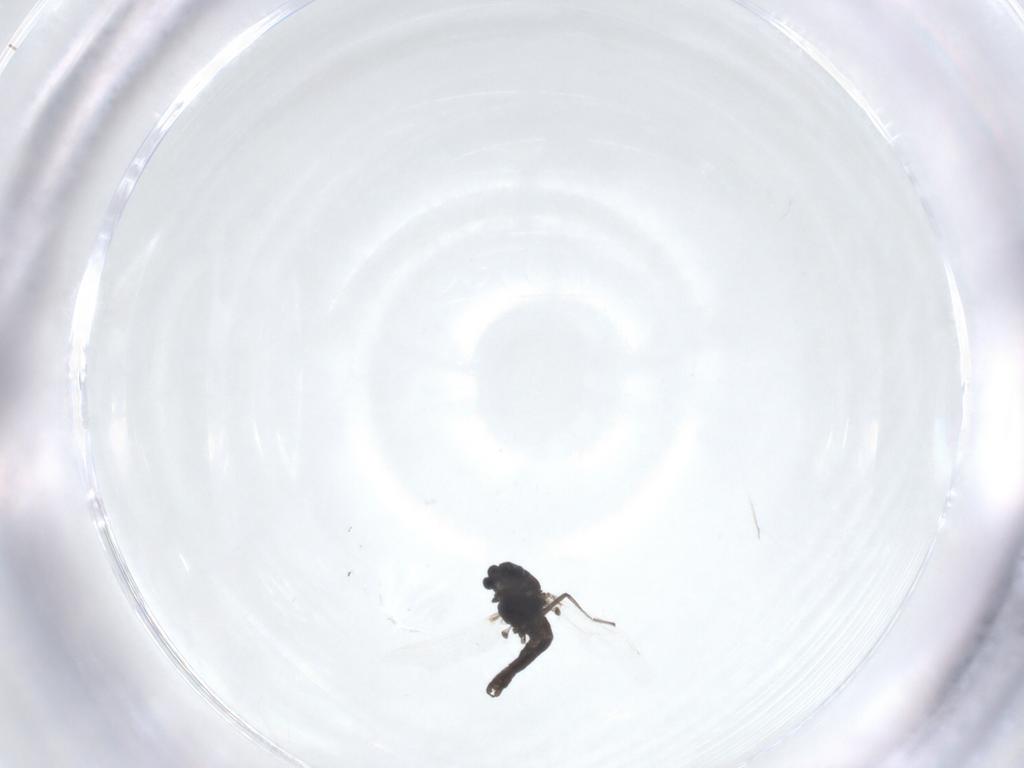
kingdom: Animalia
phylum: Arthropoda
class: Insecta
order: Diptera
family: Chironomidae
